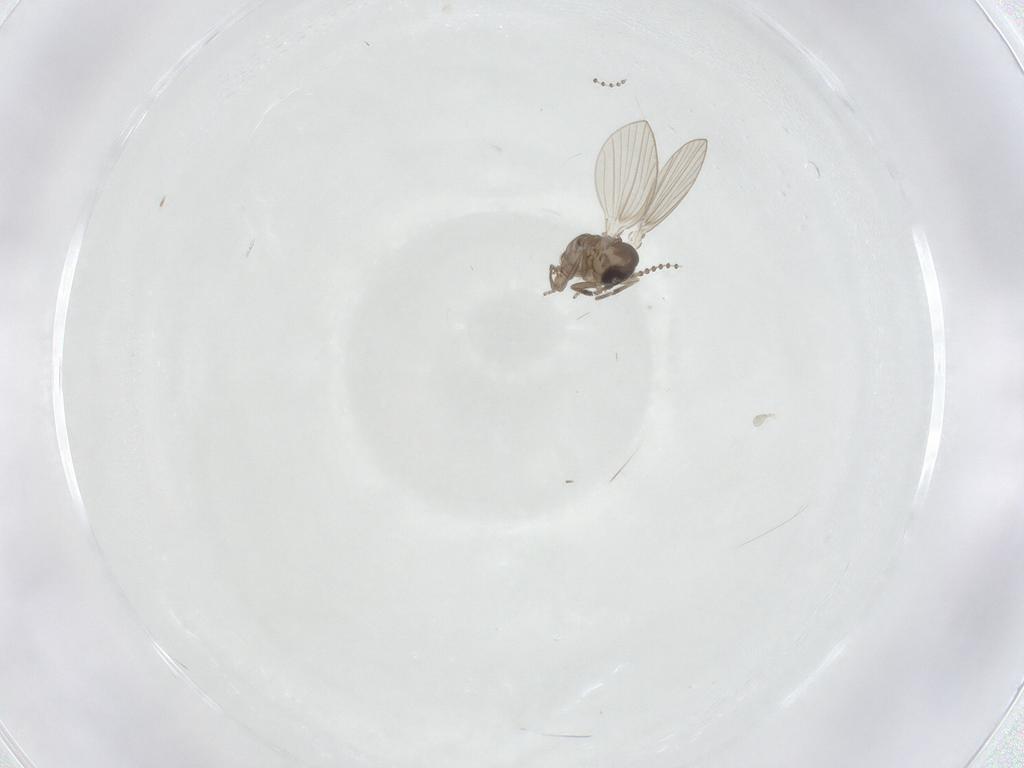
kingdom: Animalia
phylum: Arthropoda
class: Insecta
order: Diptera
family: Psychodidae
